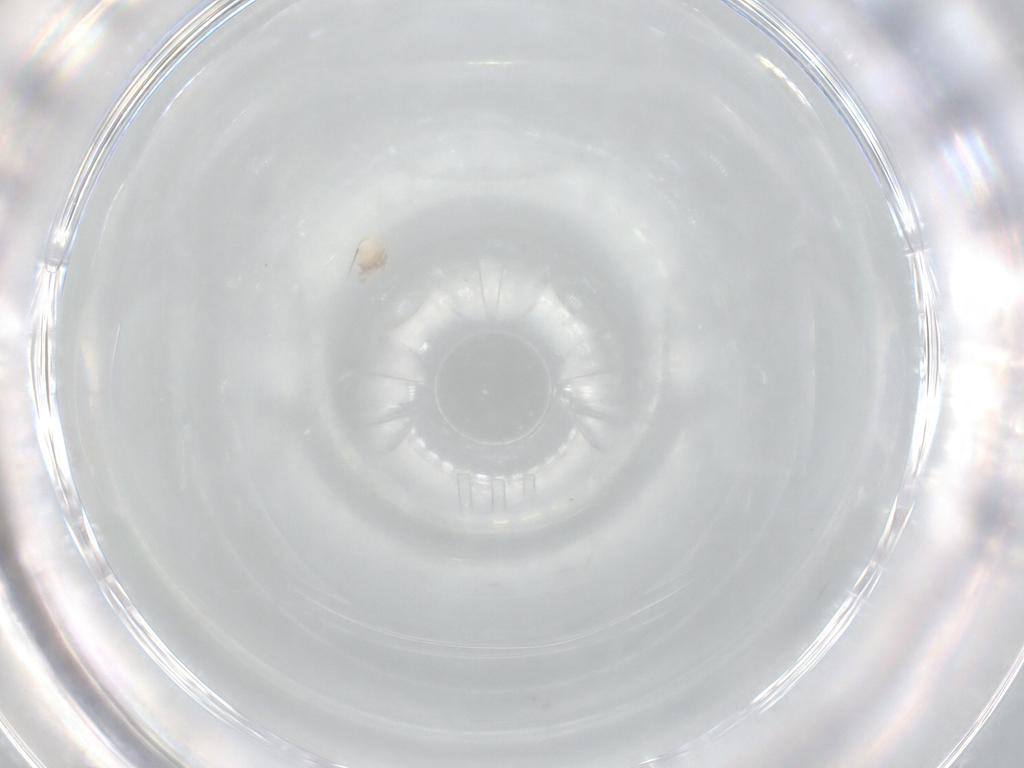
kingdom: Animalia
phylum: Arthropoda
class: Arachnida
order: Trombidiformes
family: Lebertiidae
